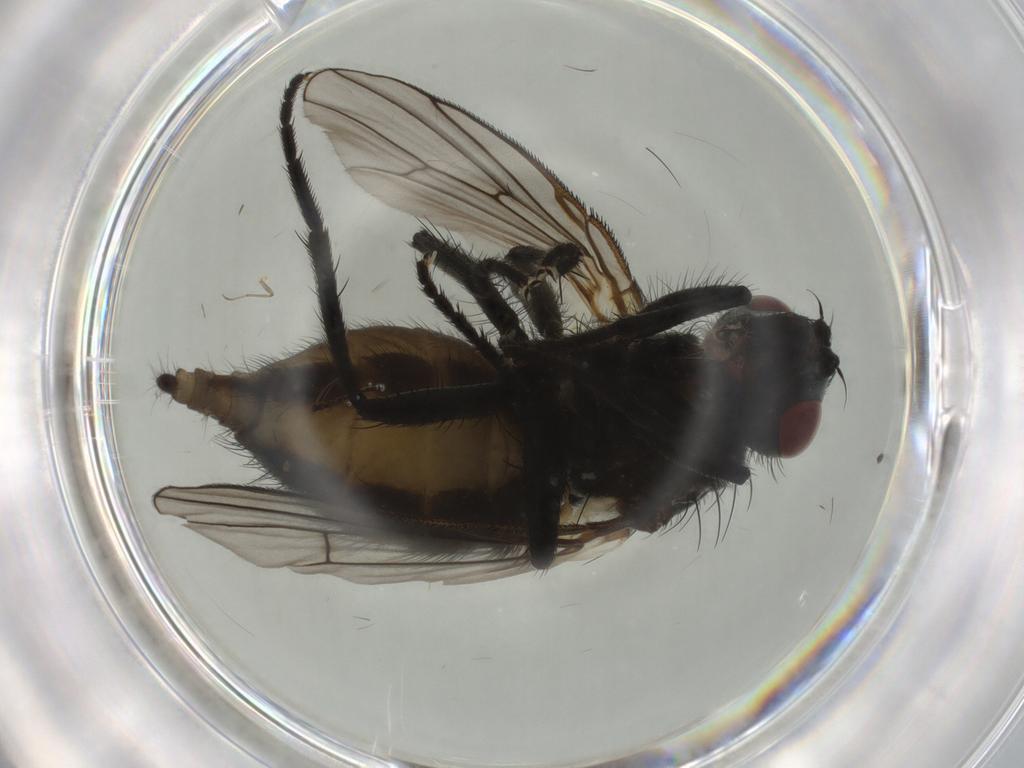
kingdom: Animalia
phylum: Arthropoda
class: Insecta
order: Diptera
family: Muscidae
